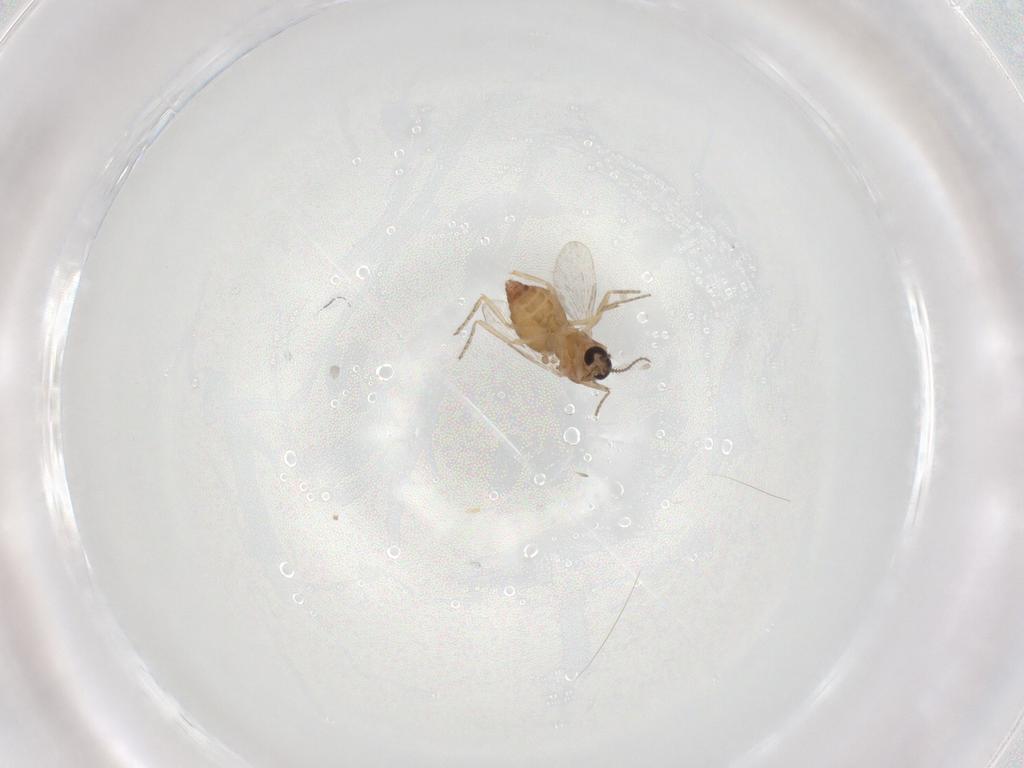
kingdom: Animalia
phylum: Arthropoda
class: Insecta
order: Diptera
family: Ceratopogonidae
